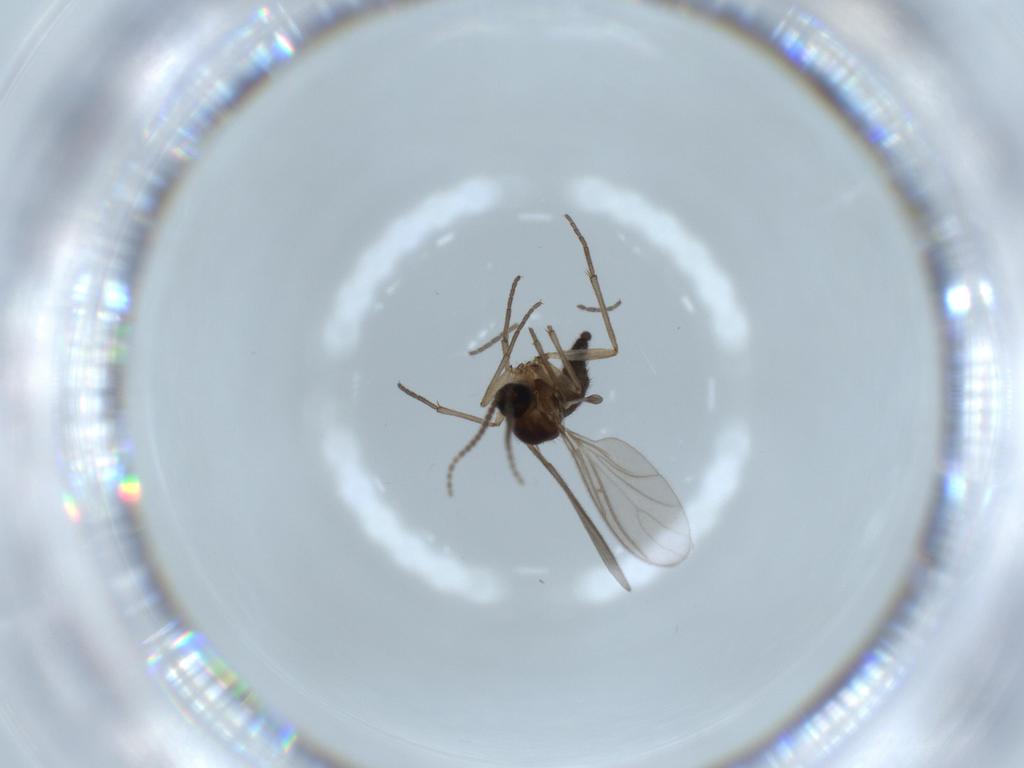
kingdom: Animalia
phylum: Arthropoda
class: Insecta
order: Diptera
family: Sciaridae
